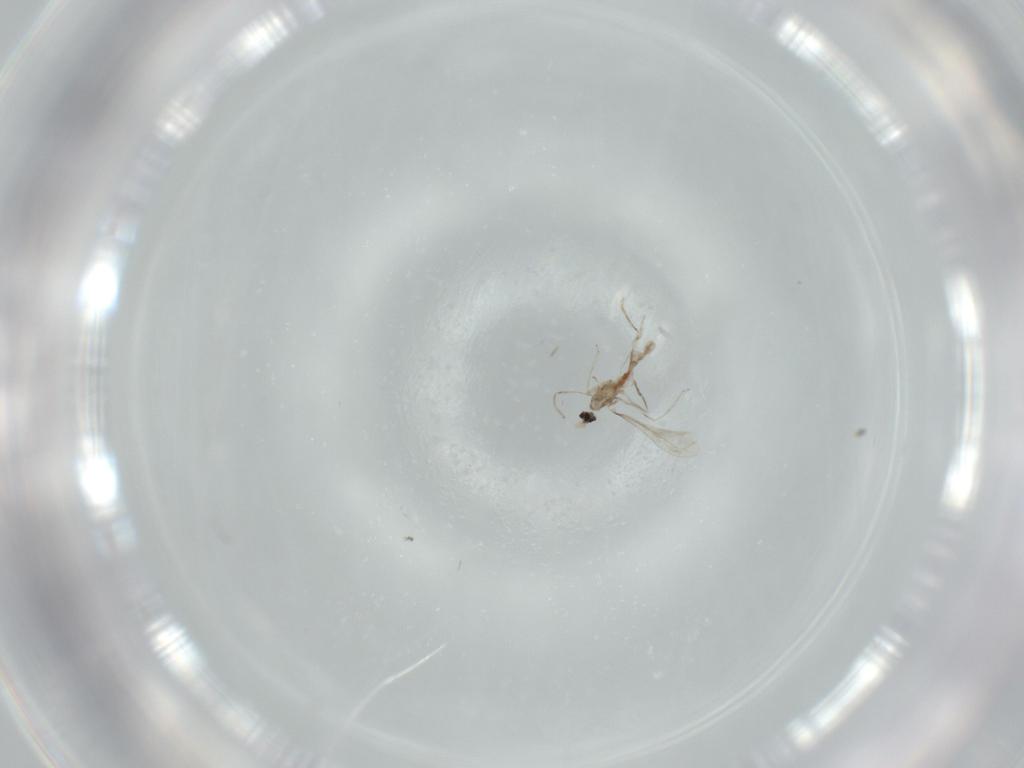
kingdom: Animalia
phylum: Arthropoda
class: Insecta
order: Diptera
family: Cecidomyiidae
